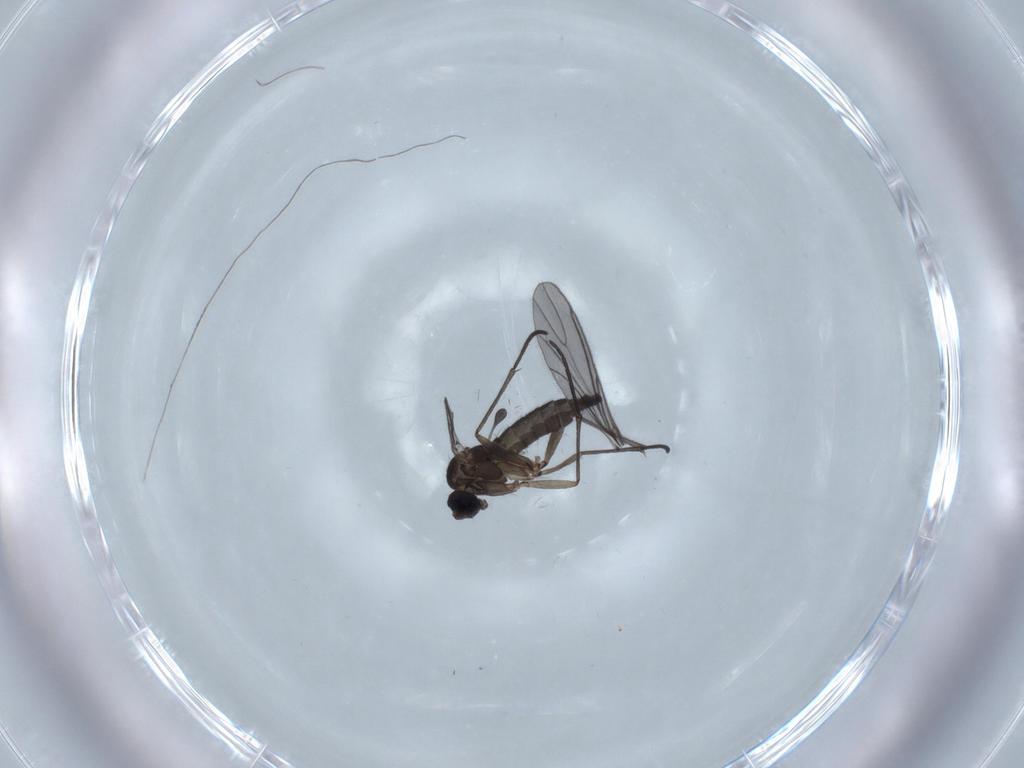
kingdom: Animalia
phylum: Arthropoda
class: Insecta
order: Diptera
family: Sciaridae
